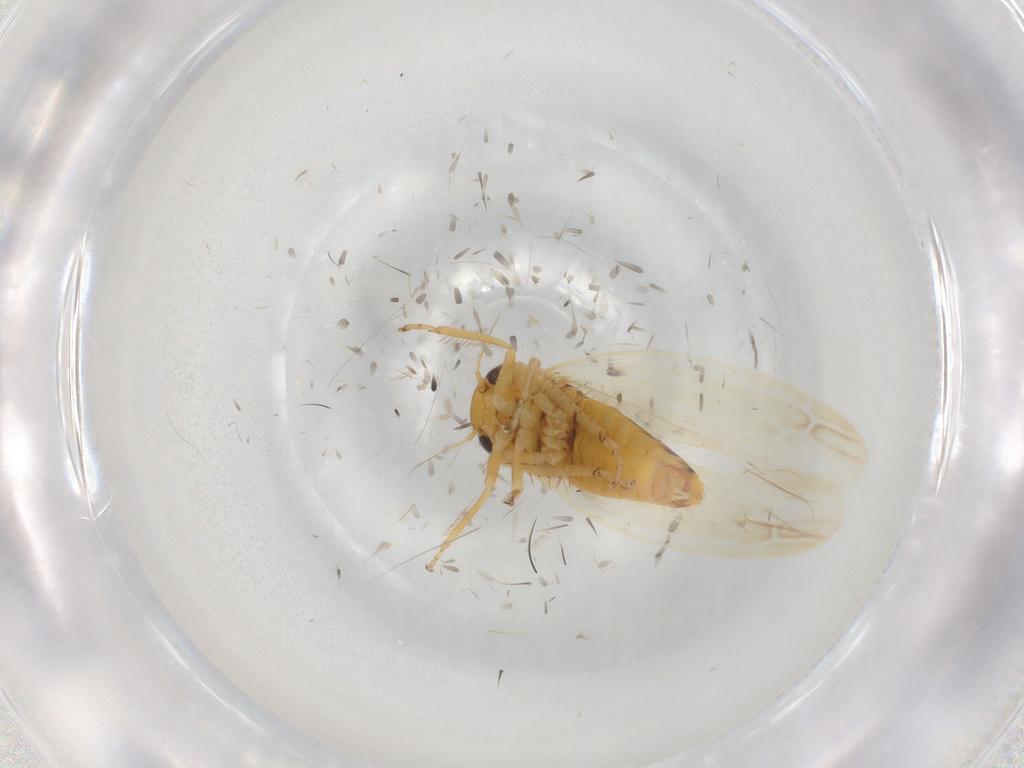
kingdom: Animalia
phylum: Arthropoda
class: Insecta
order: Hemiptera
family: Cicadellidae
